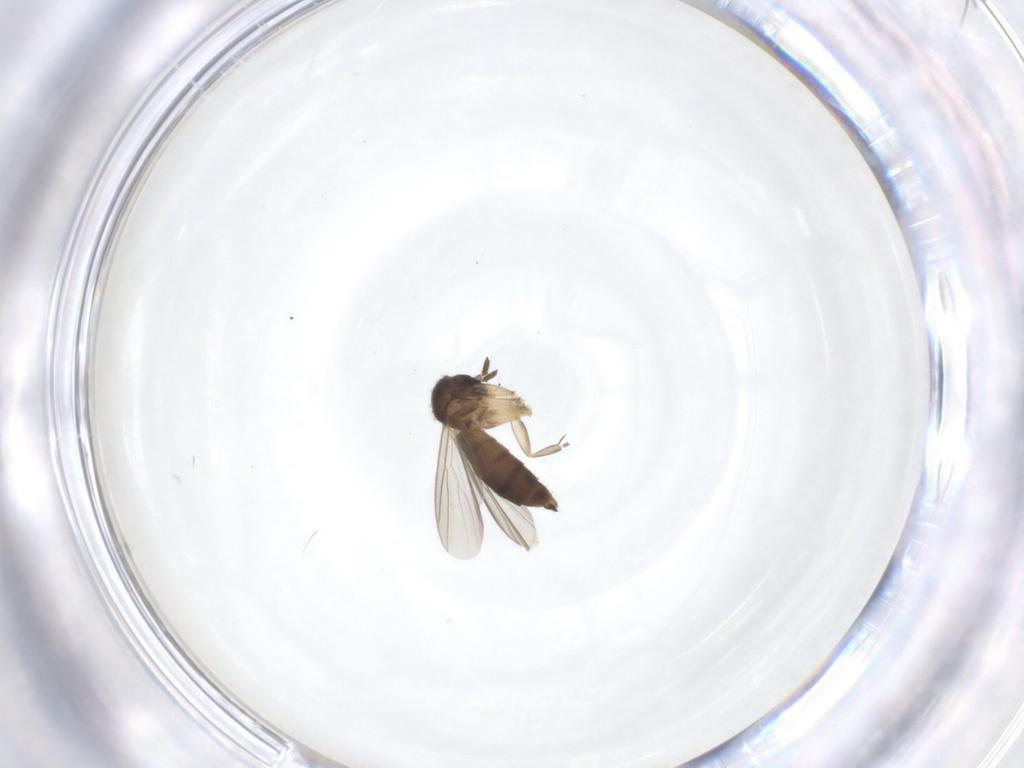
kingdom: Animalia
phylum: Arthropoda
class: Insecta
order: Diptera
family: Mycetophilidae
